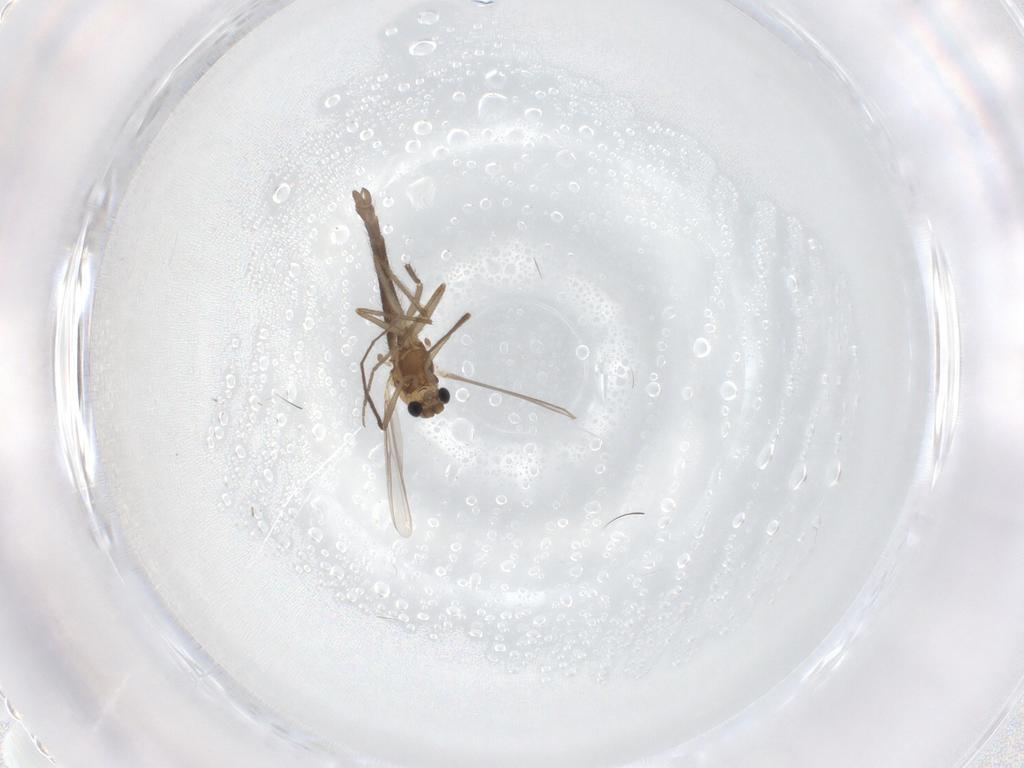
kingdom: Animalia
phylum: Arthropoda
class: Insecta
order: Diptera
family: Chironomidae
